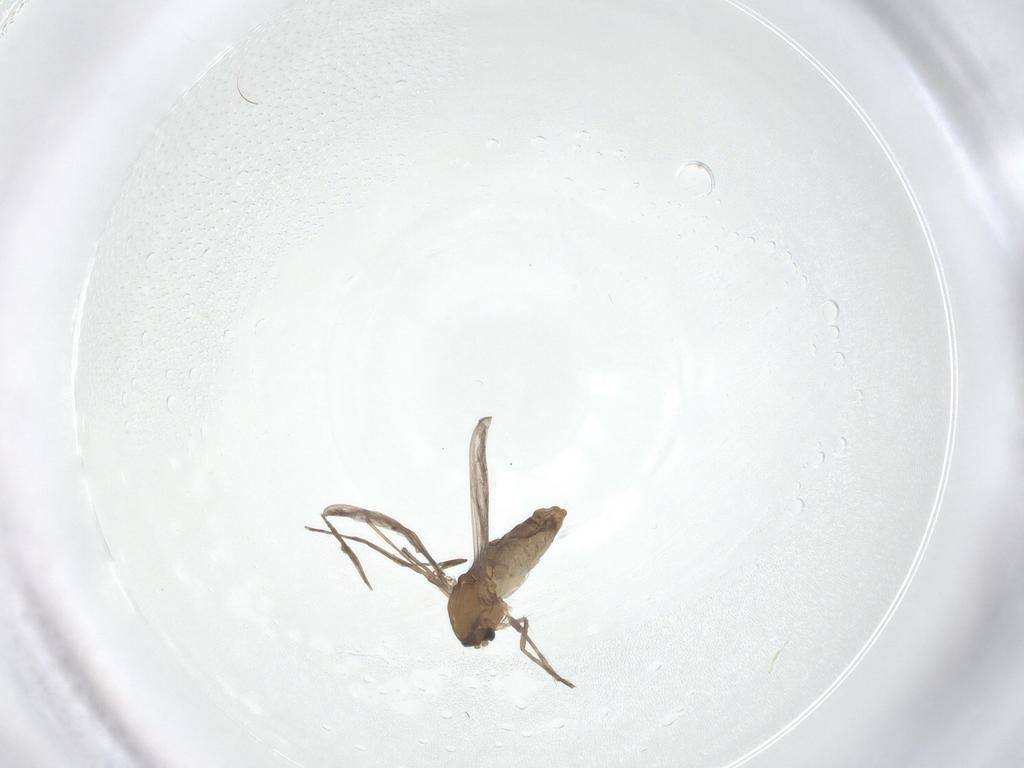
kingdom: Animalia
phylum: Arthropoda
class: Insecta
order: Diptera
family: Chironomidae
